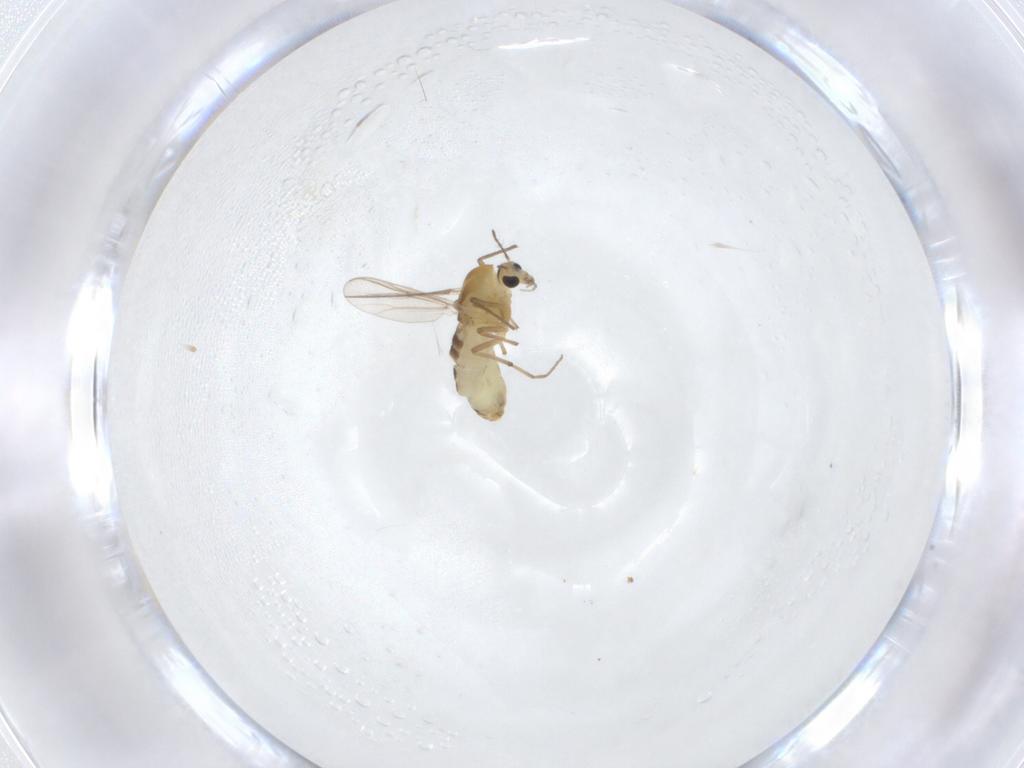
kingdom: Animalia
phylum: Arthropoda
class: Insecta
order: Diptera
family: Chironomidae
